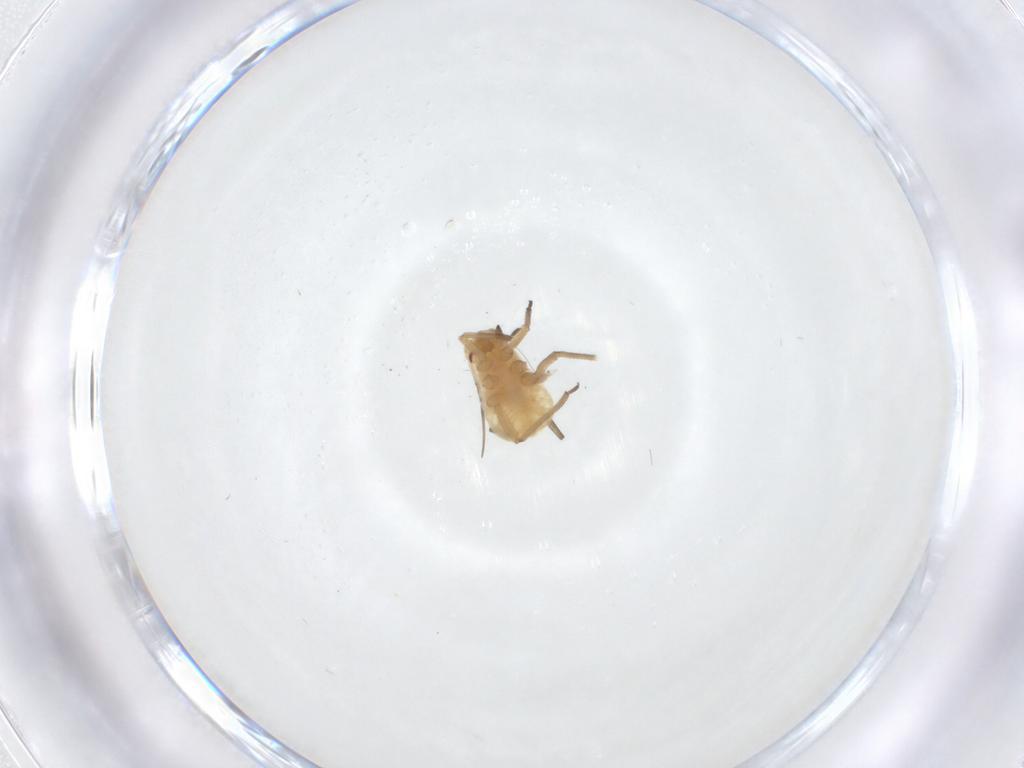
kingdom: Animalia
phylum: Arthropoda
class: Insecta
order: Hemiptera
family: Aphididae
